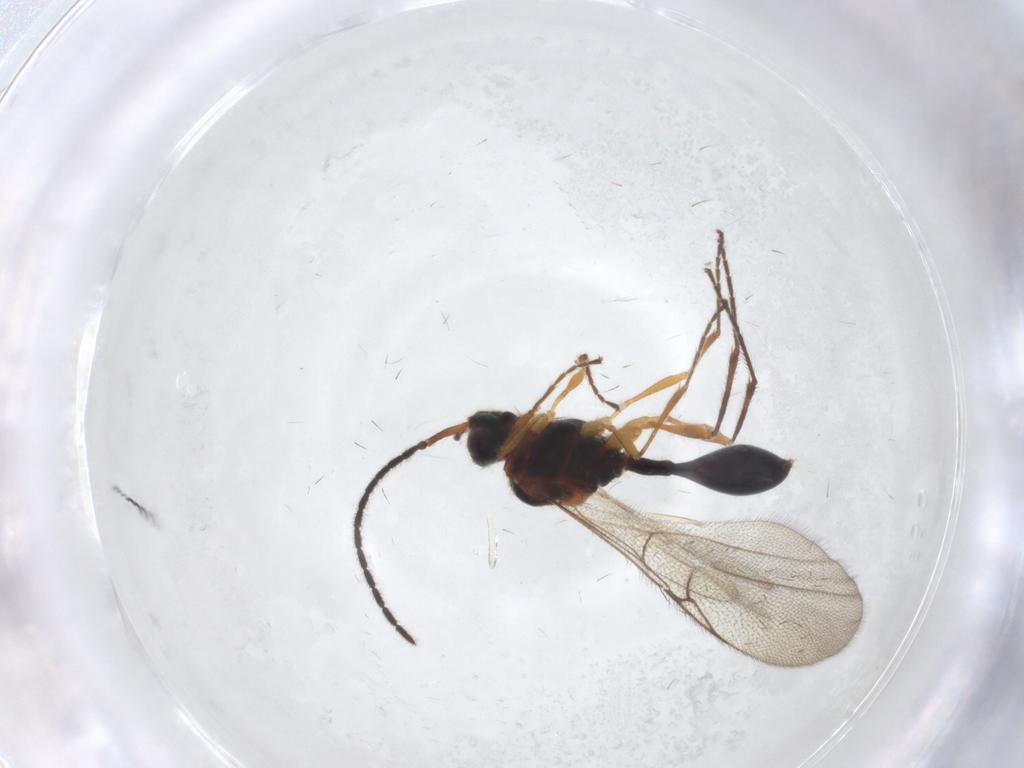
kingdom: Animalia
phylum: Arthropoda
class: Insecta
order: Hymenoptera
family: Diapriidae
